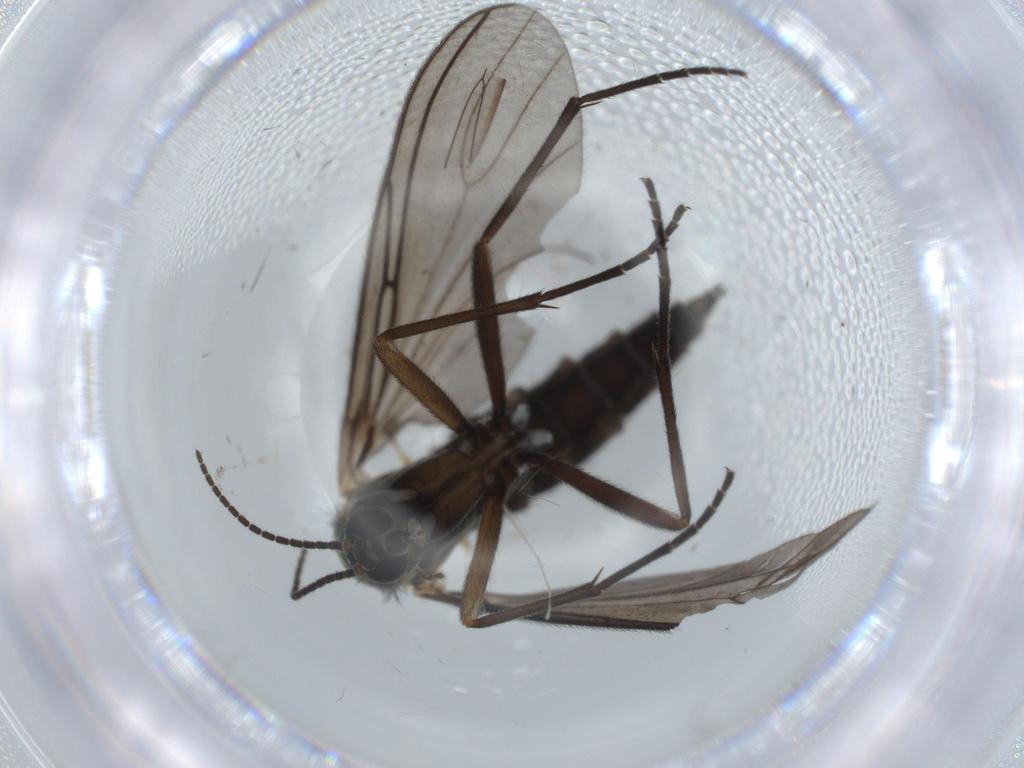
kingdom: Animalia
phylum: Arthropoda
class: Insecta
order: Diptera
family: Sciaridae
